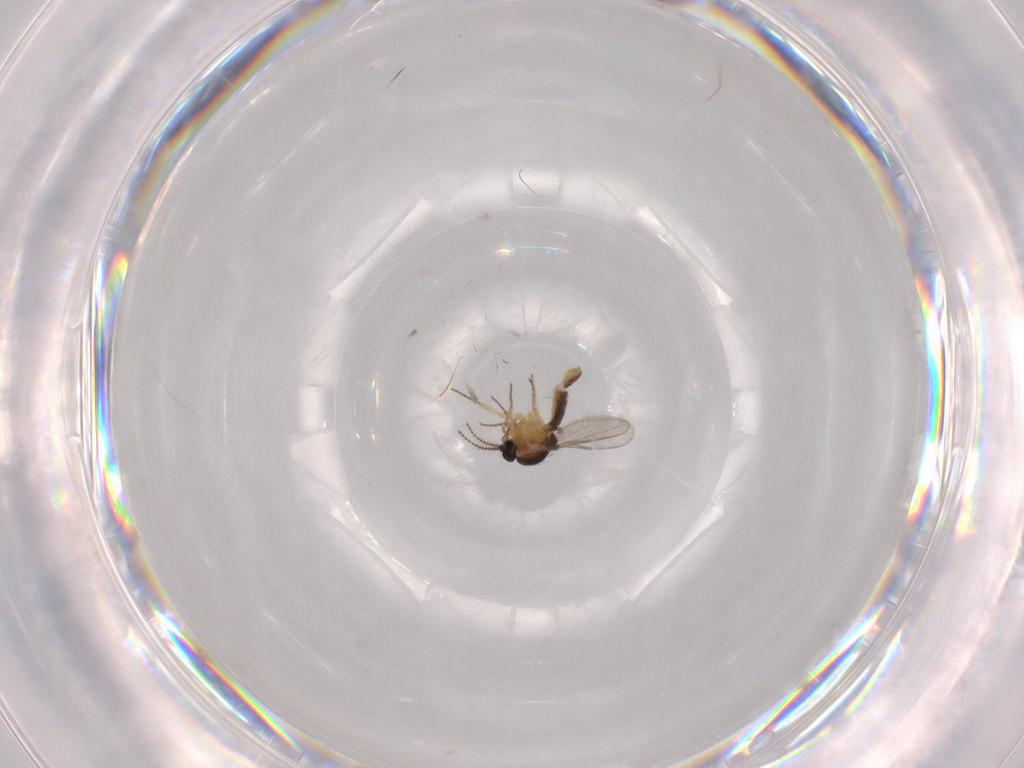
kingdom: Animalia
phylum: Arthropoda
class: Insecta
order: Diptera
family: Ceratopogonidae
